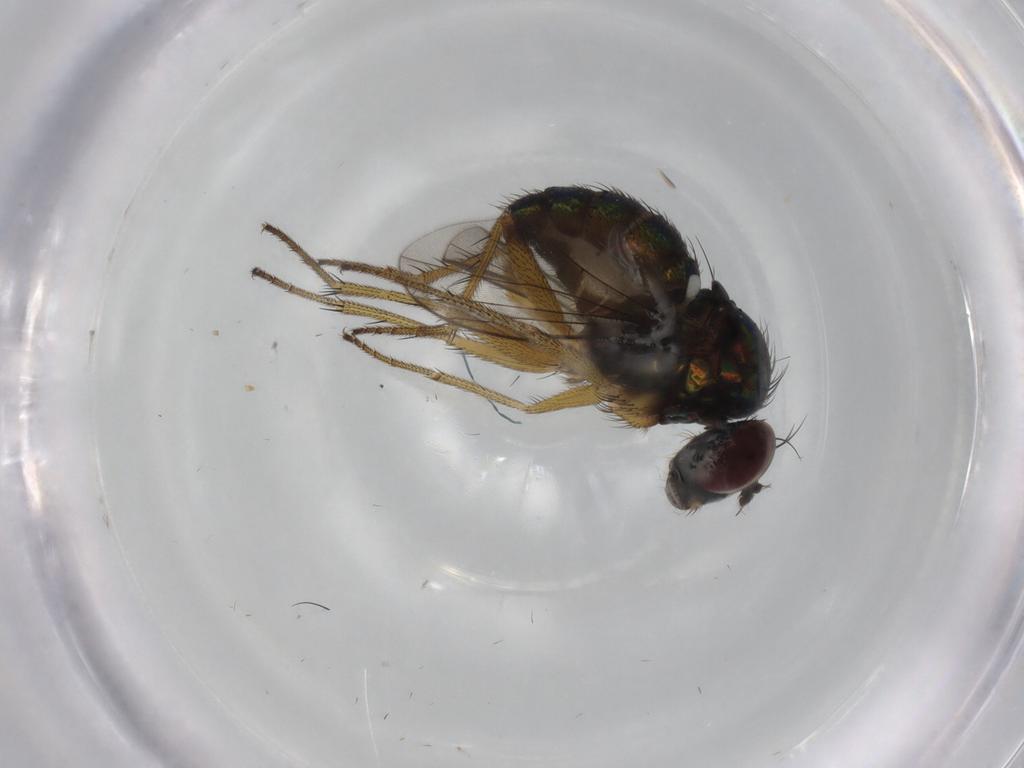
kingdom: Animalia
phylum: Arthropoda
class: Insecta
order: Diptera
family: Dolichopodidae
